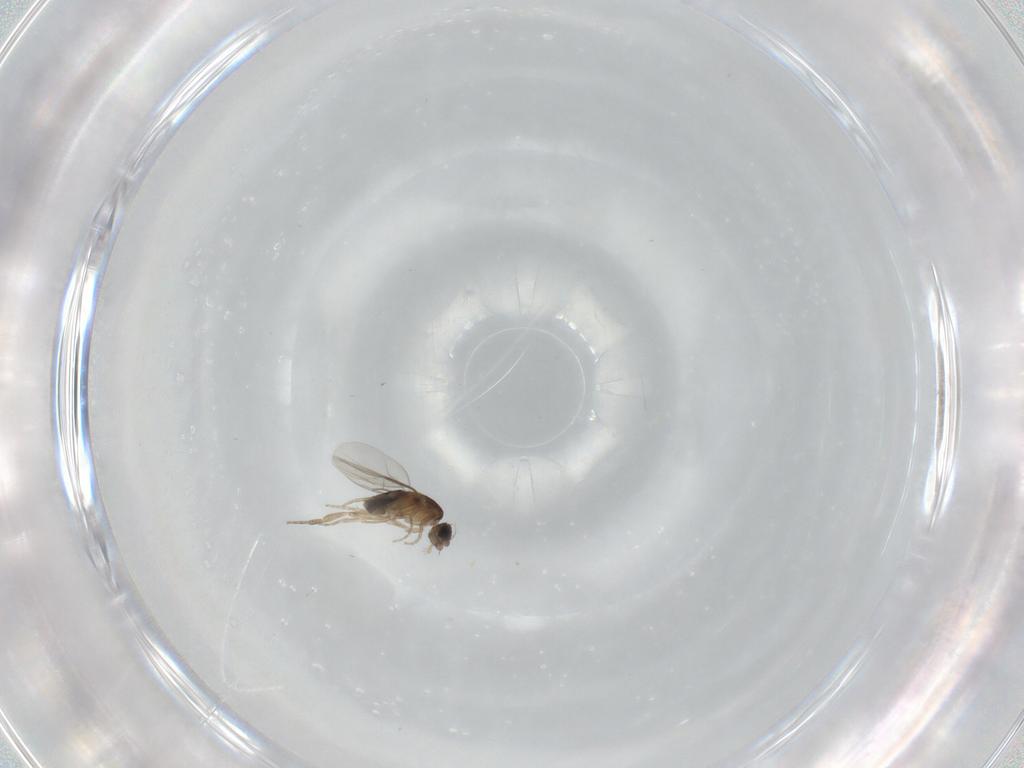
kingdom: Animalia
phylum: Arthropoda
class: Insecta
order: Diptera
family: Phoridae
